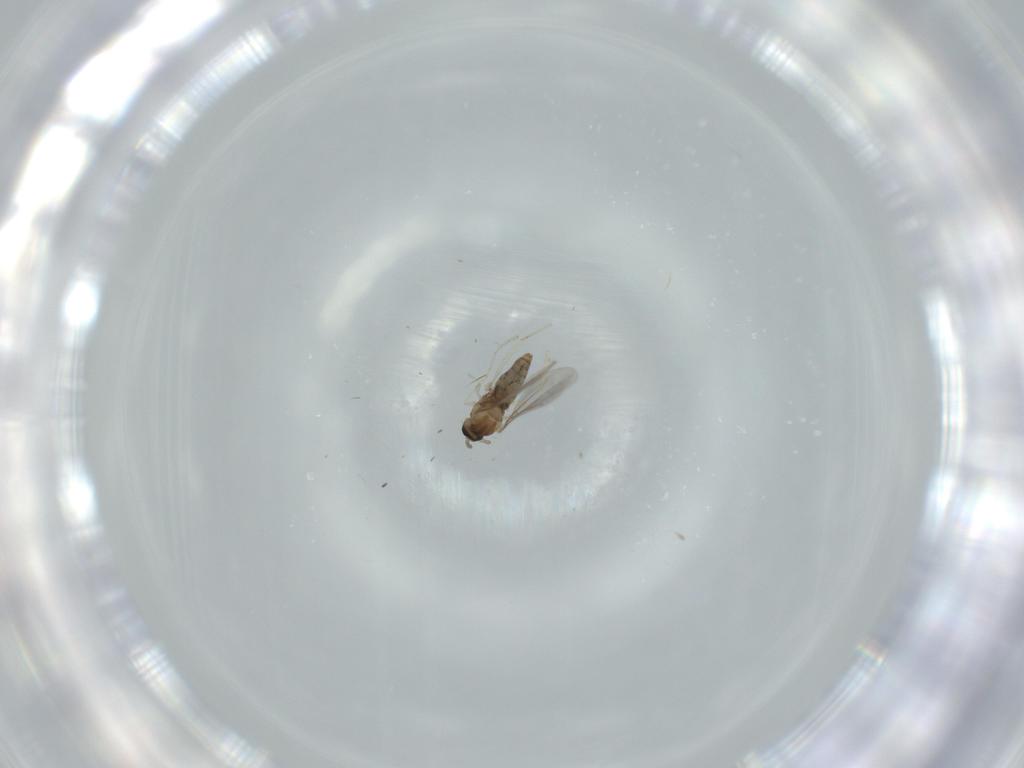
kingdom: Animalia
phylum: Arthropoda
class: Insecta
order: Diptera
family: Cecidomyiidae
